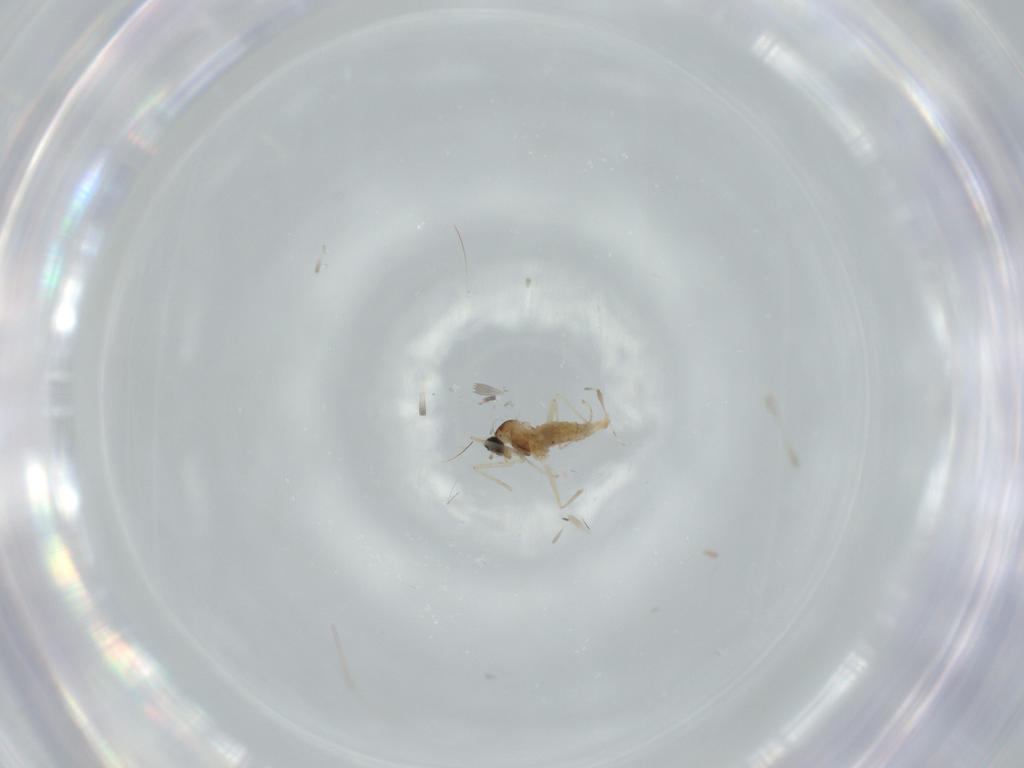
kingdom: Animalia
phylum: Arthropoda
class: Insecta
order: Diptera
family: Cecidomyiidae
